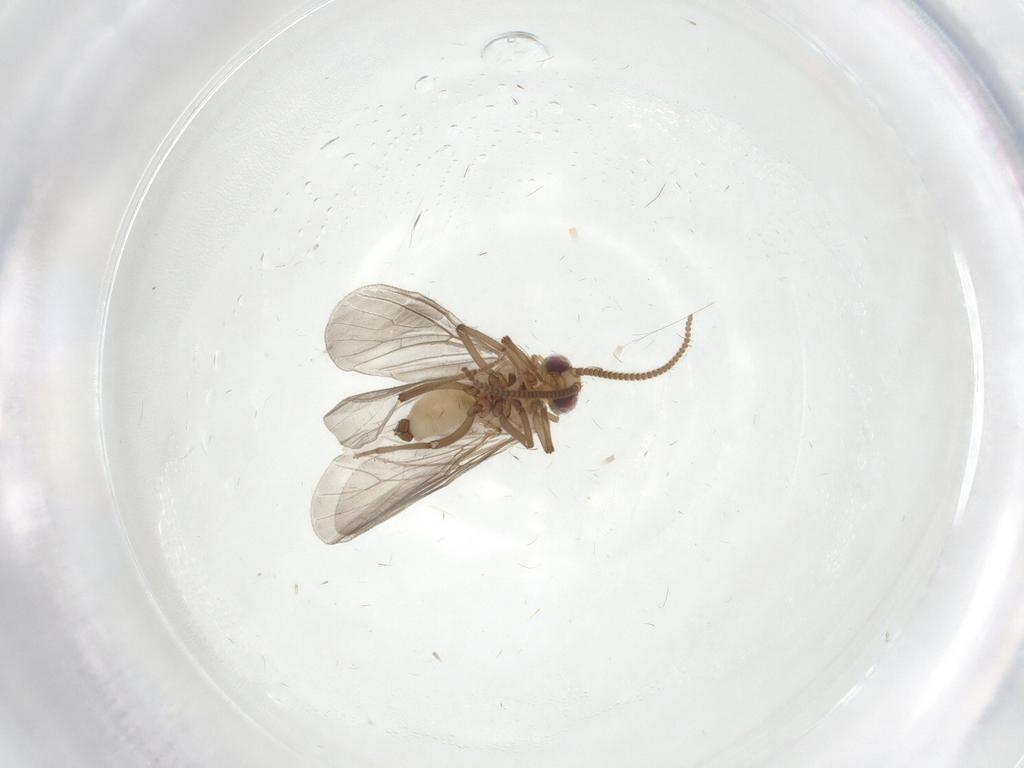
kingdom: Animalia
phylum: Arthropoda
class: Insecta
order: Neuroptera
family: Coniopterygidae
